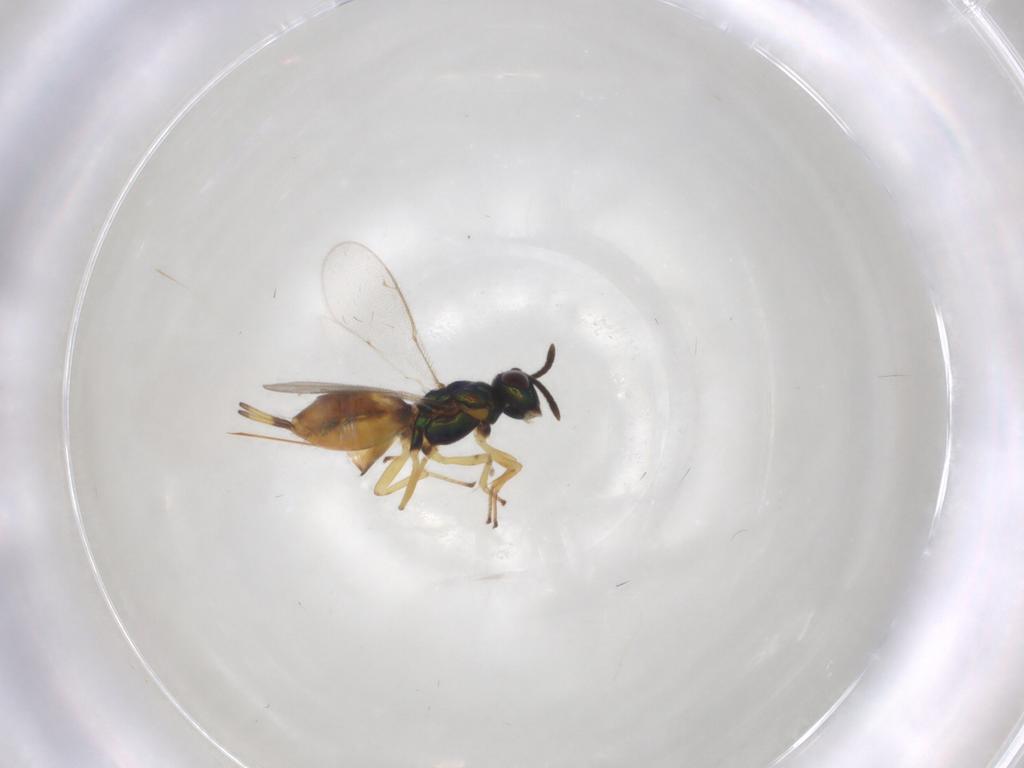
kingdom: Animalia
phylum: Arthropoda
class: Insecta
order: Hymenoptera
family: Eupelmidae
